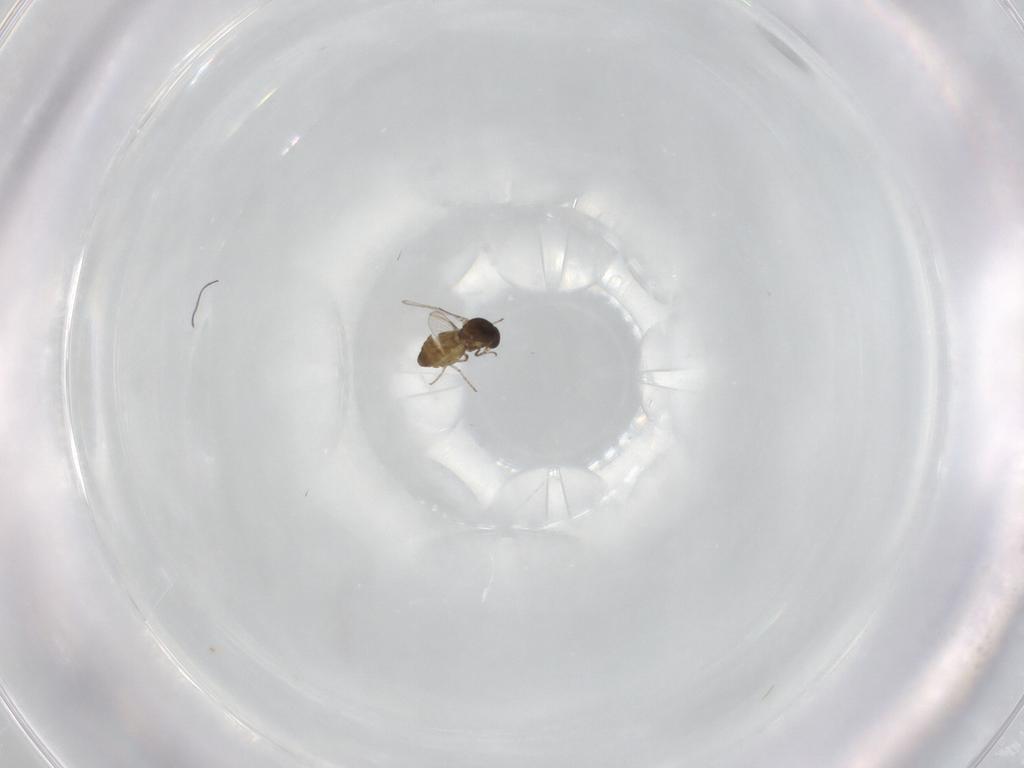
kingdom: Animalia
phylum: Arthropoda
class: Insecta
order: Diptera
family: Ceratopogonidae
